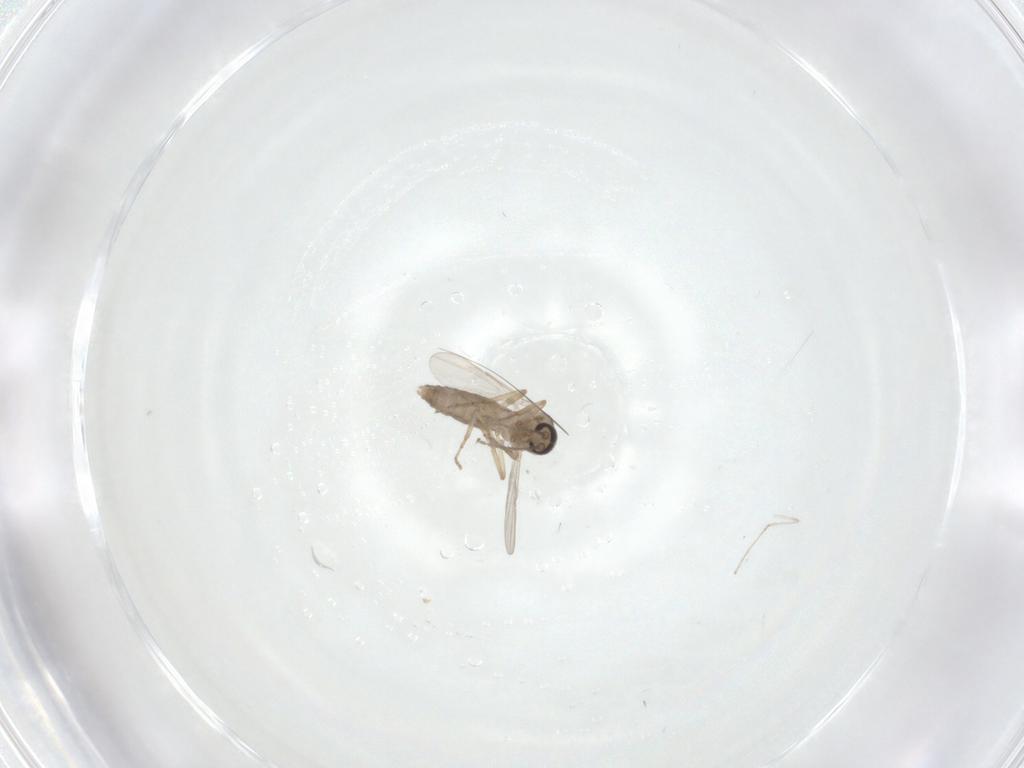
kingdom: Animalia
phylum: Arthropoda
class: Insecta
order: Diptera
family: Cecidomyiidae
